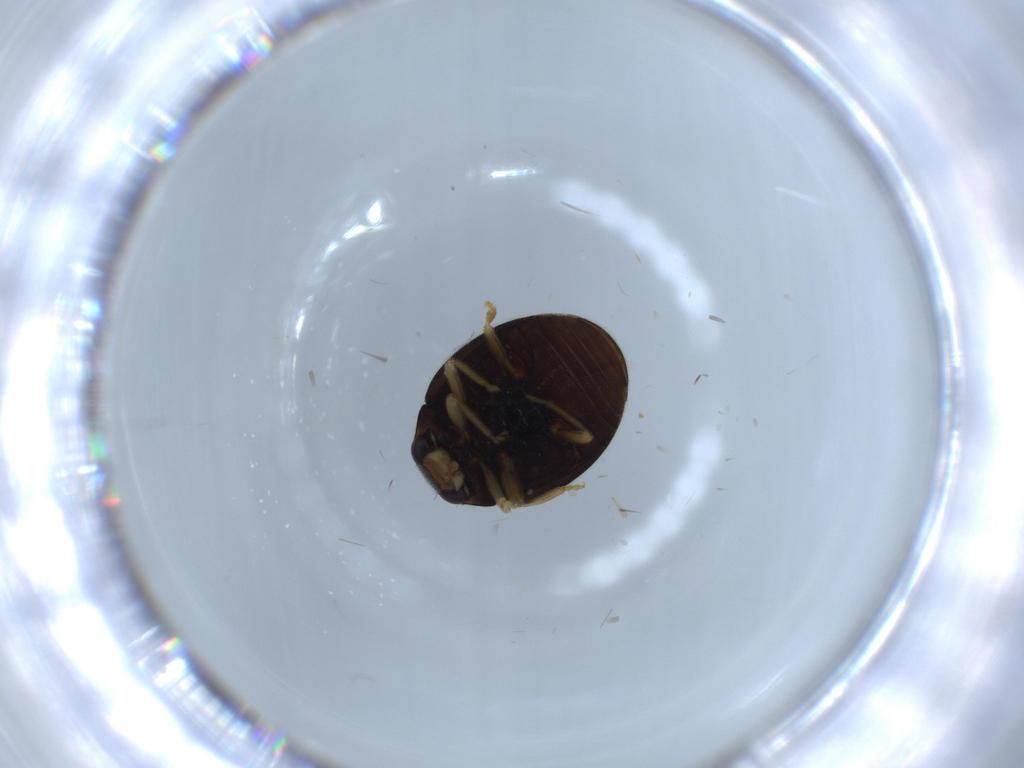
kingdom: Animalia
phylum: Arthropoda
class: Insecta
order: Coleoptera
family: Coccinellidae
